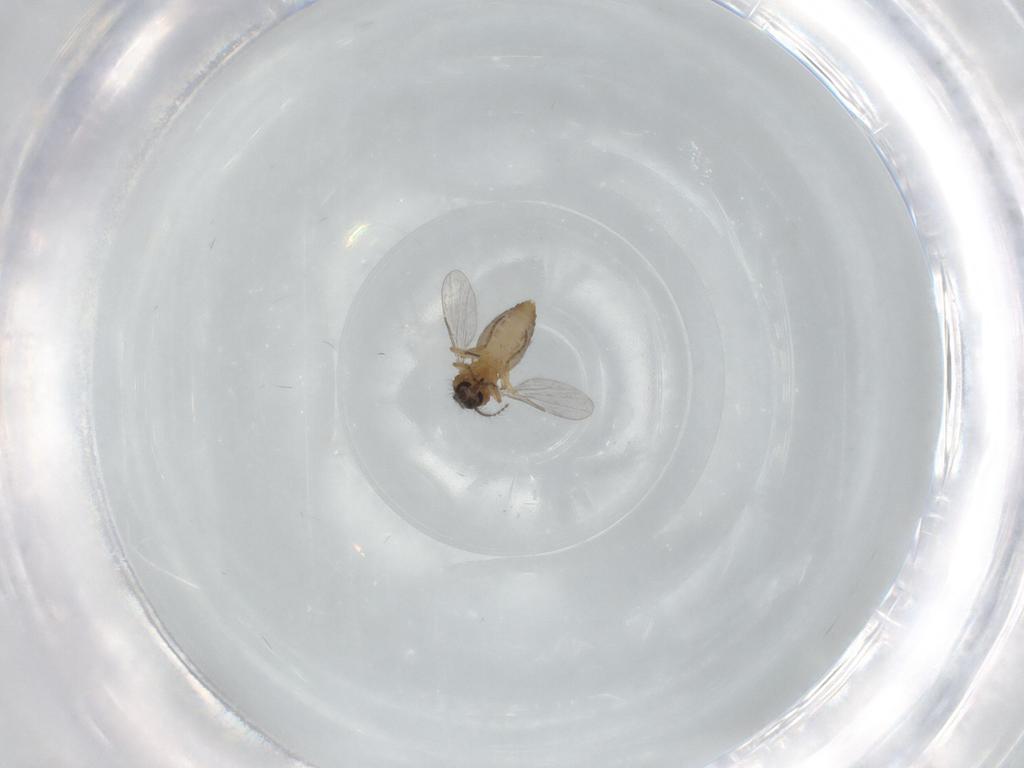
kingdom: Animalia
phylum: Arthropoda
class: Insecta
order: Diptera
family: Ceratopogonidae
